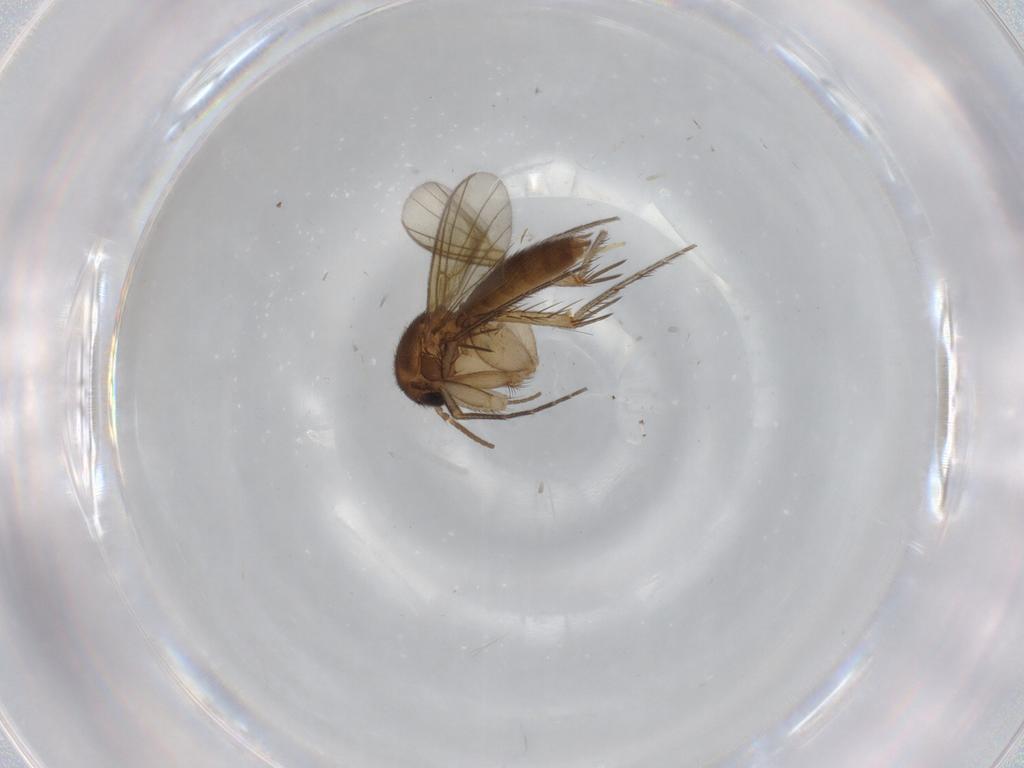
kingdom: Animalia
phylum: Arthropoda
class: Insecta
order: Diptera
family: Mycetophilidae
